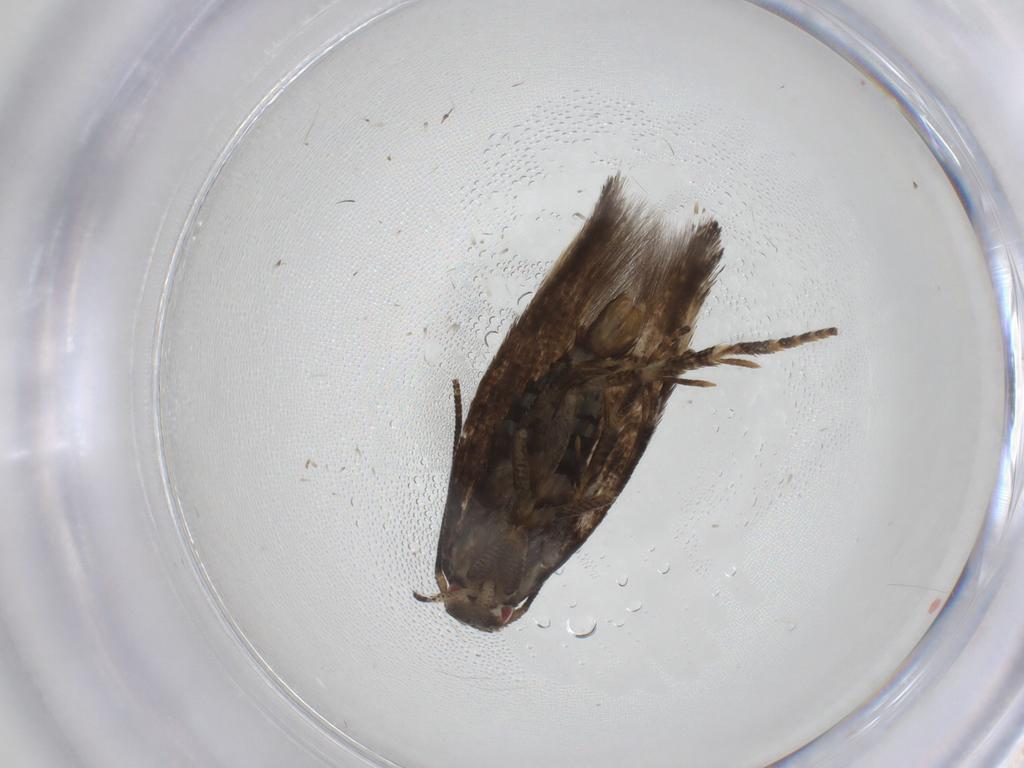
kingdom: Animalia
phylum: Arthropoda
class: Insecta
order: Lepidoptera
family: Momphidae
